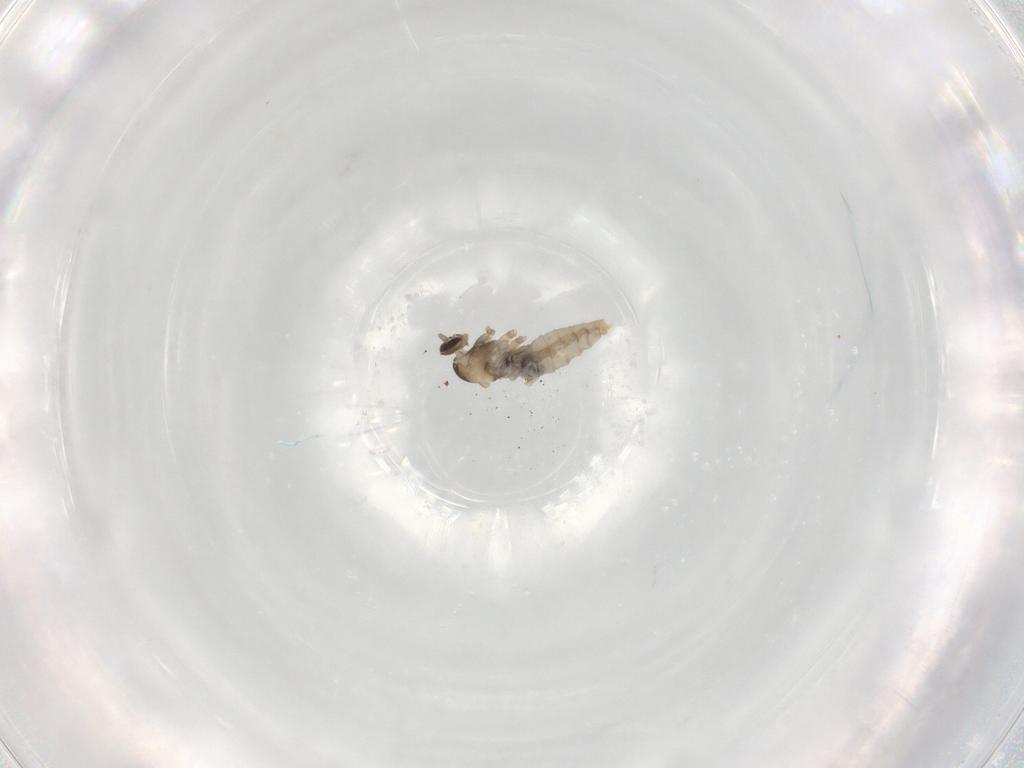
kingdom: Animalia
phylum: Arthropoda
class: Insecta
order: Diptera
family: Cecidomyiidae
